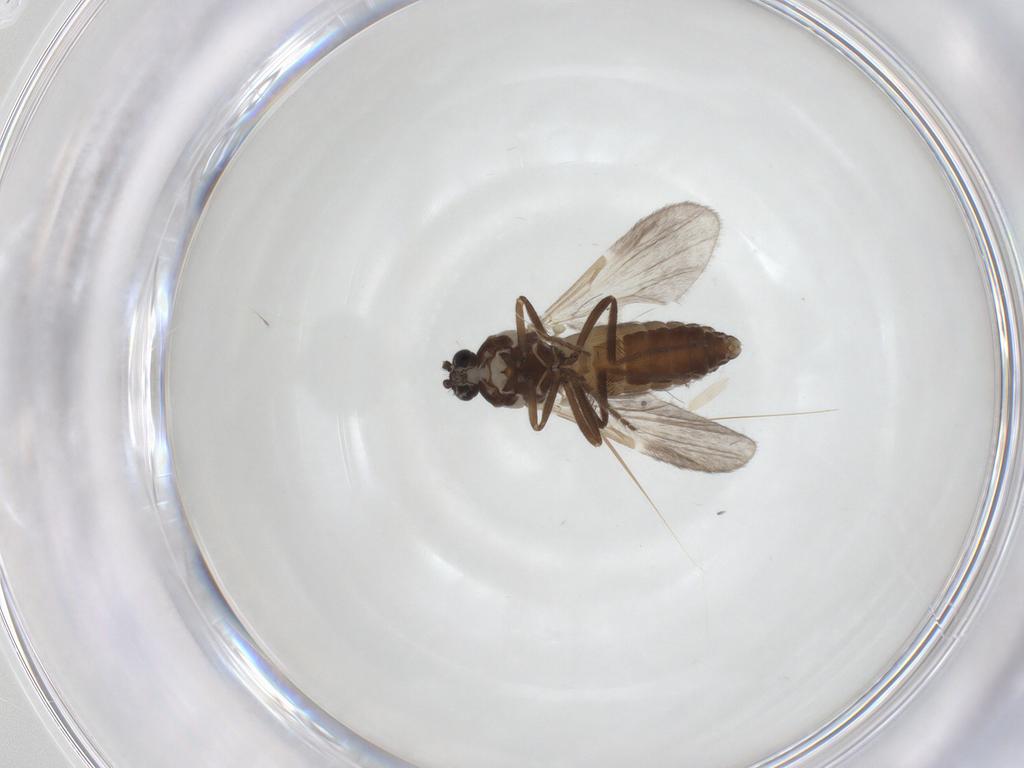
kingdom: Animalia
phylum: Arthropoda
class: Insecta
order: Diptera
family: Ceratopogonidae
